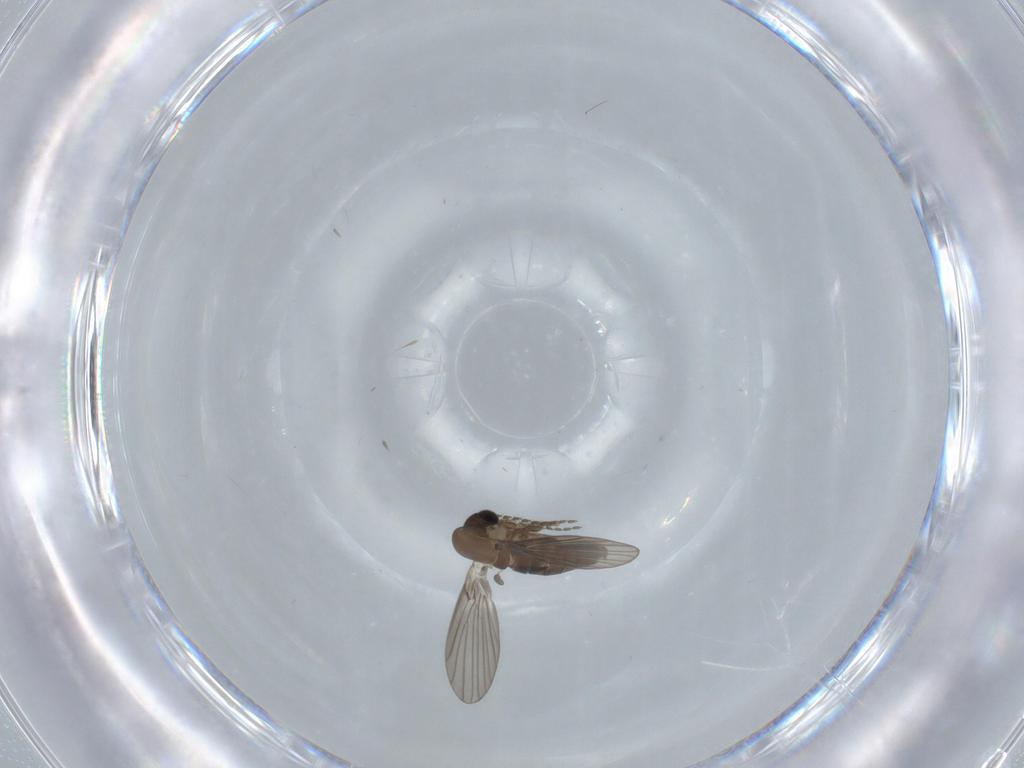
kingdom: Animalia
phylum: Arthropoda
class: Insecta
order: Diptera
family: Psychodidae
